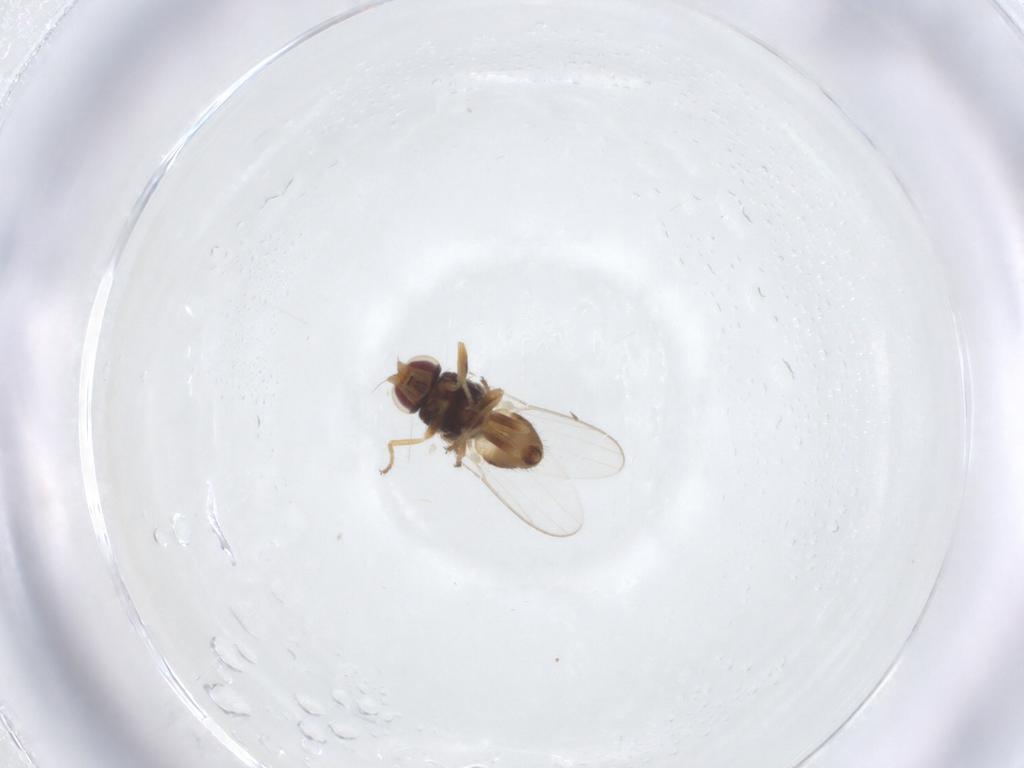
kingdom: Animalia
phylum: Arthropoda
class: Insecta
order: Diptera
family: Chloropidae
